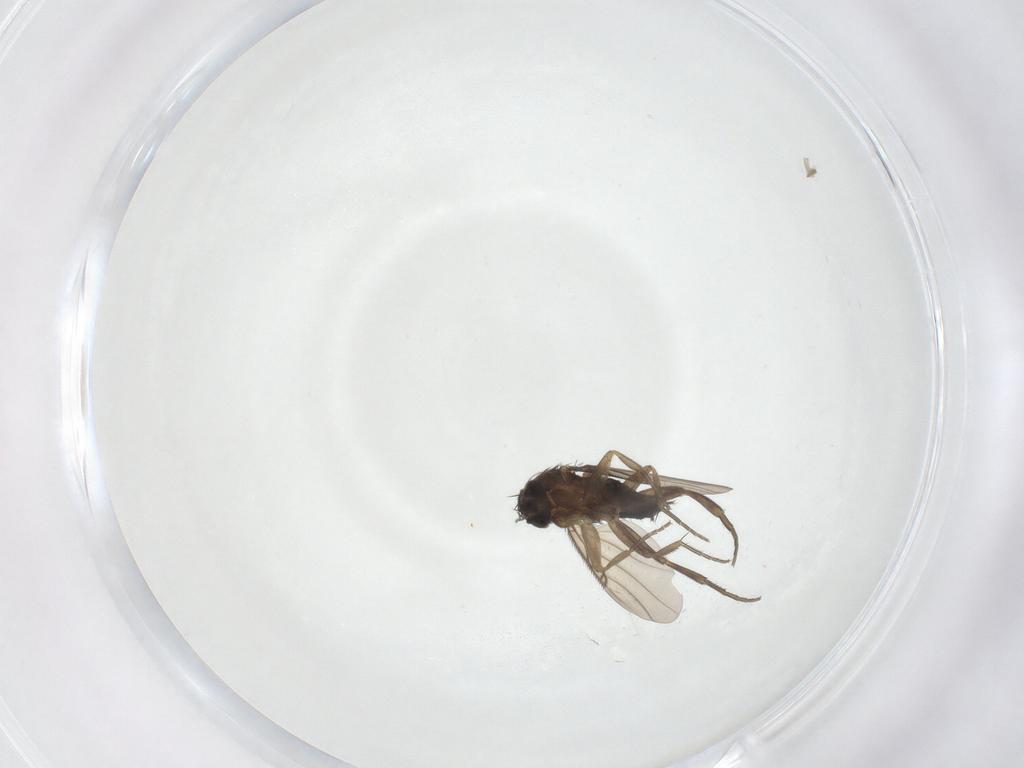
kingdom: Animalia
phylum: Arthropoda
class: Insecta
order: Diptera
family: Phoridae
